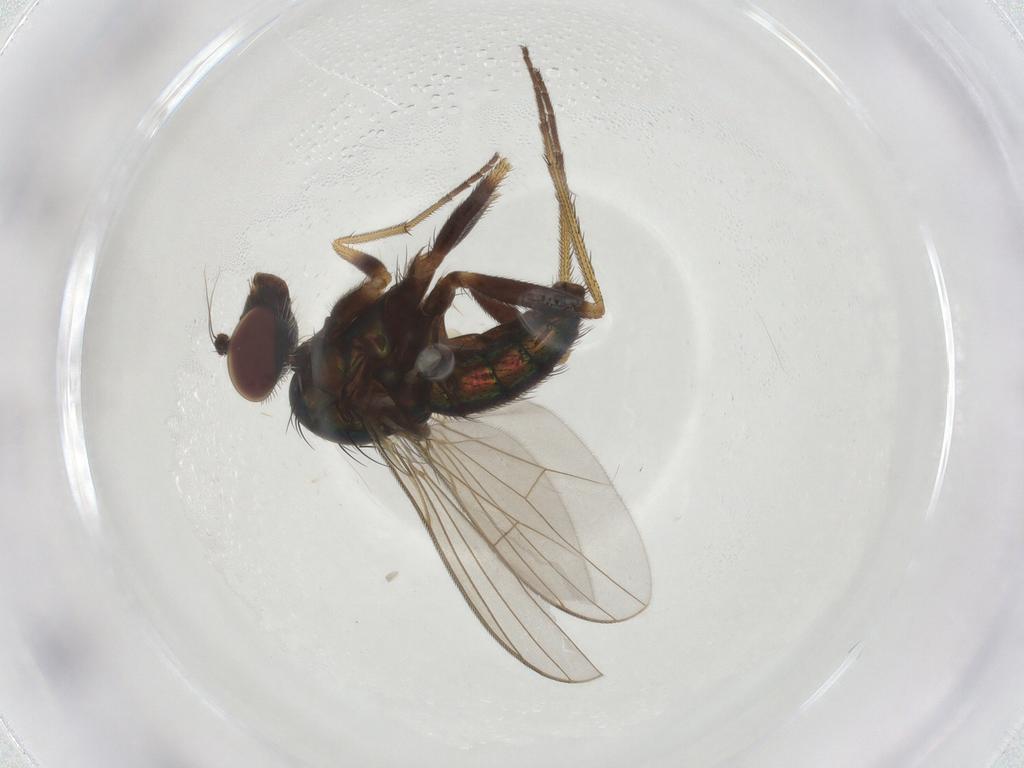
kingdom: Animalia
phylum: Arthropoda
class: Insecta
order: Diptera
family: Dolichopodidae
